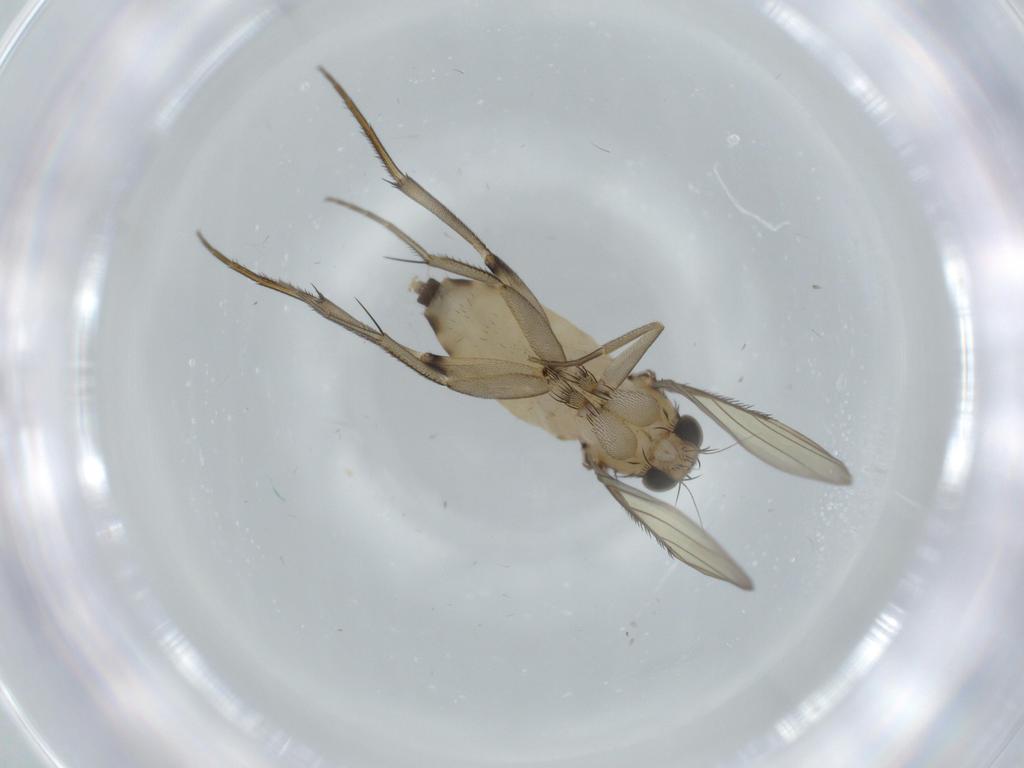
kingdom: Animalia
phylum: Arthropoda
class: Insecta
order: Diptera
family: Phoridae
